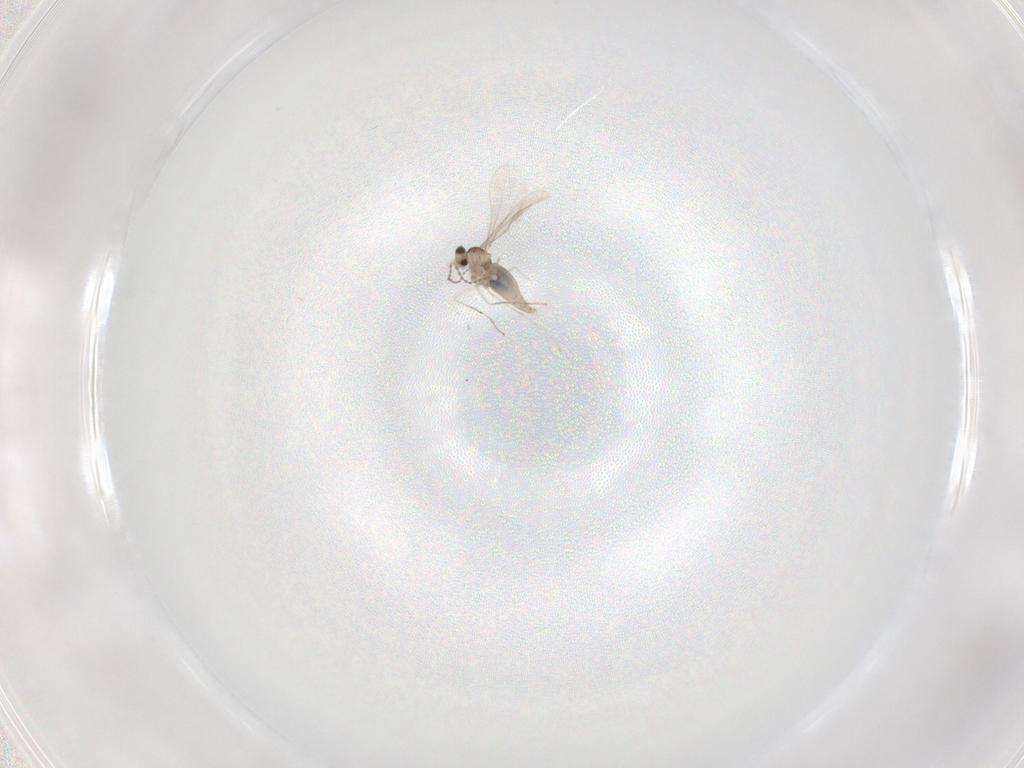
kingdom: Animalia
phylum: Arthropoda
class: Insecta
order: Diptera
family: Cecidomyiidae
